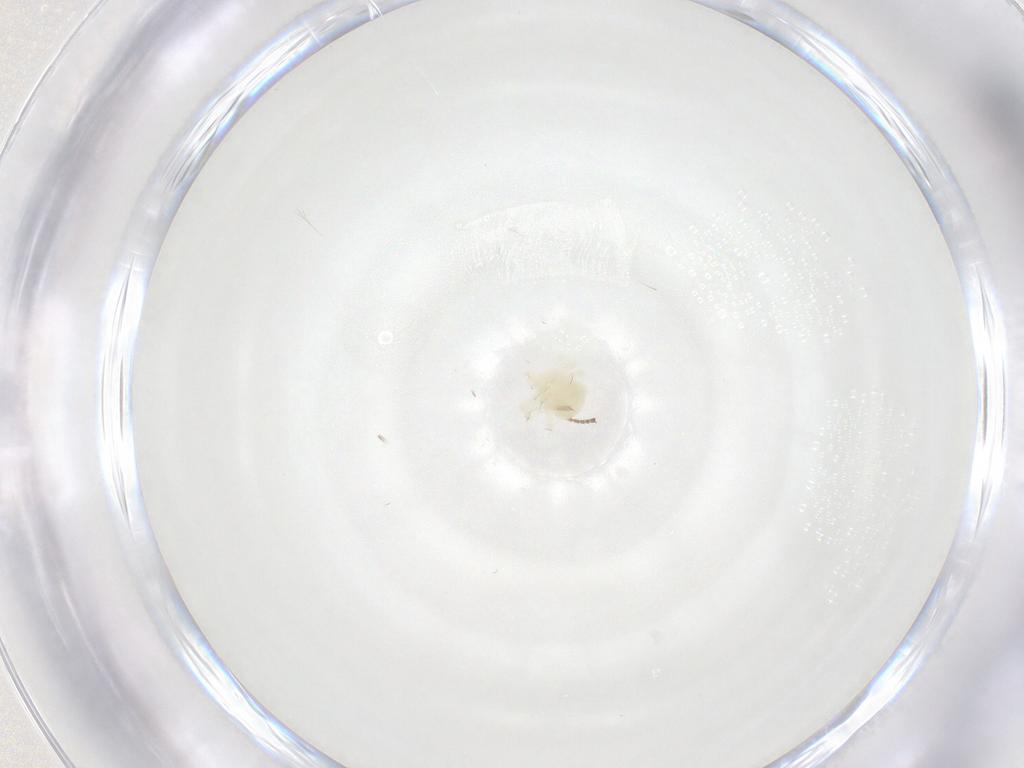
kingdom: Animalia
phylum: Arthropoda
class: Arachnida
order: Trombidiformes
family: Anystidae
